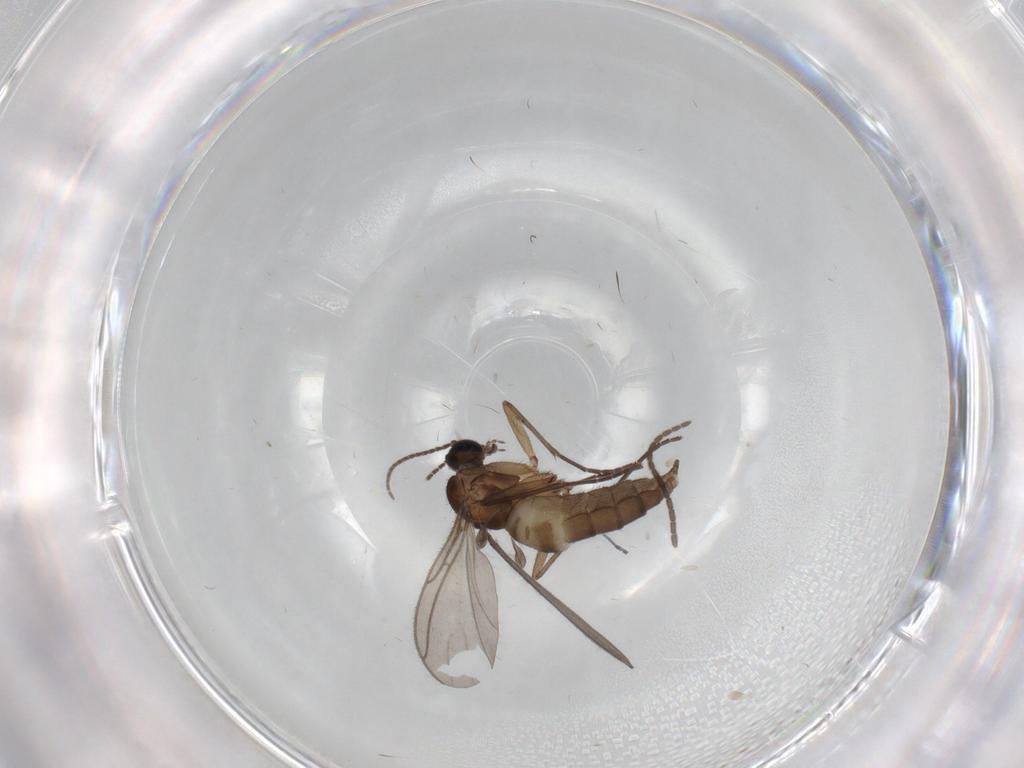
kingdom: Animalia
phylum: Arthropoda
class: Insecta
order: Diptera
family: Sciaridae
